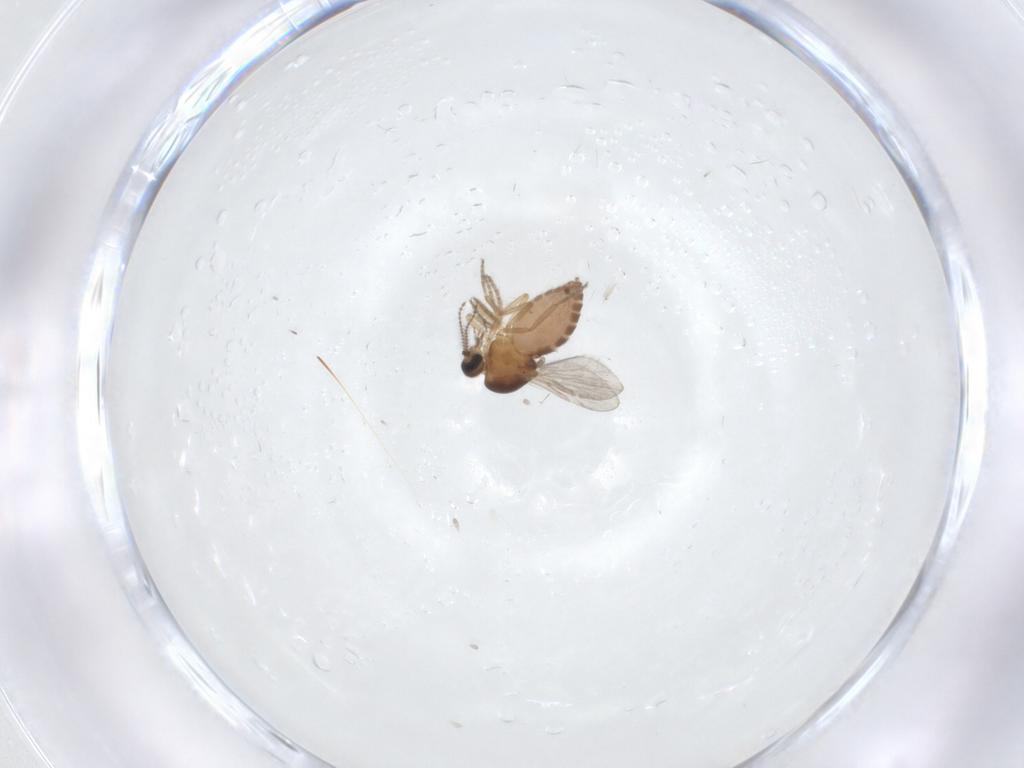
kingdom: Animalia
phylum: Arthropoda
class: Insecta
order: Diptera
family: Ceratopogonidae
